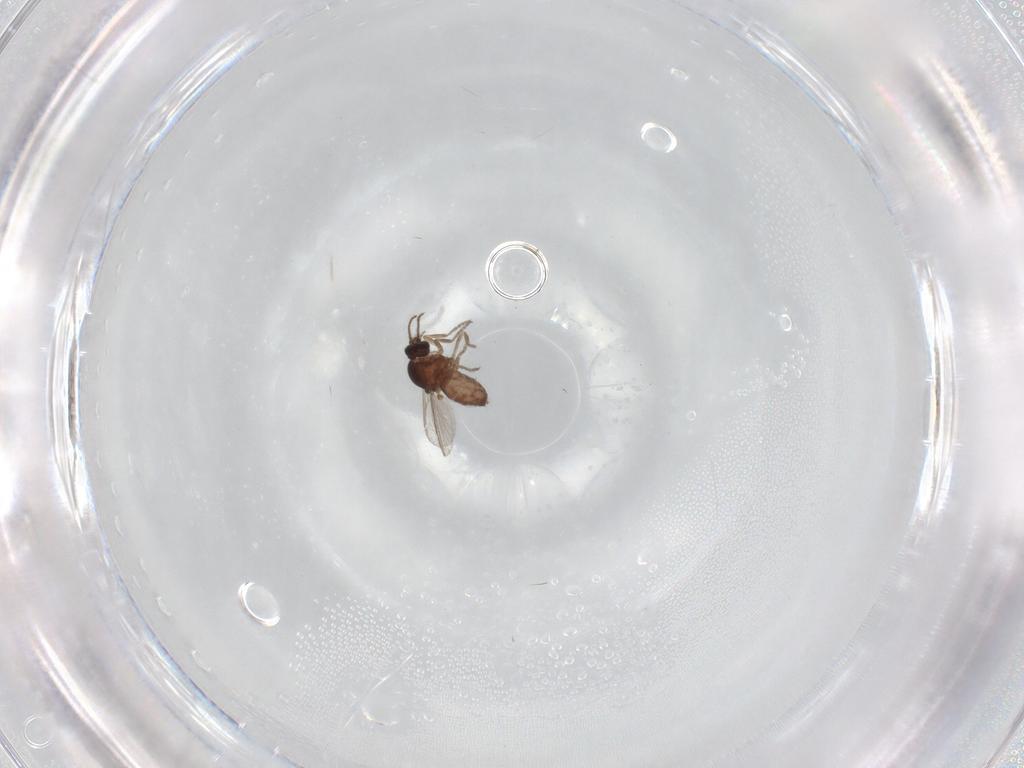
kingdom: Animalia
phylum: Arthropoda
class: Insecta
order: Diptera
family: Ceratopogonidae
